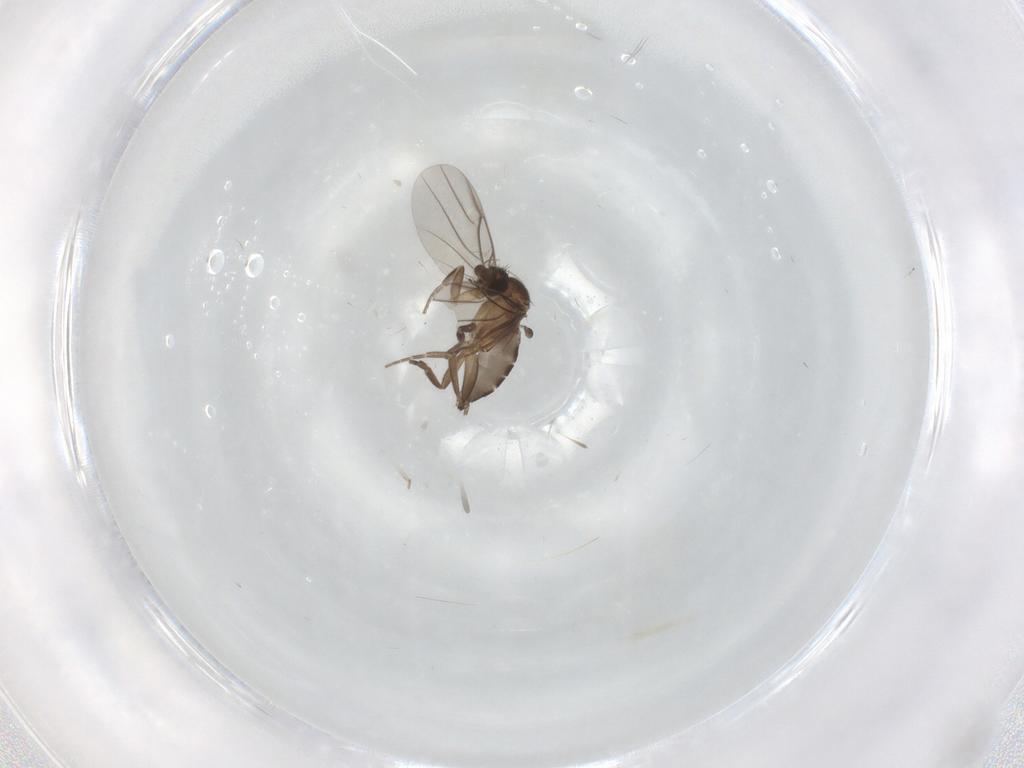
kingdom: Animalia
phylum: Arthropoda
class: Insecta
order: Diptera
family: Phoridae
